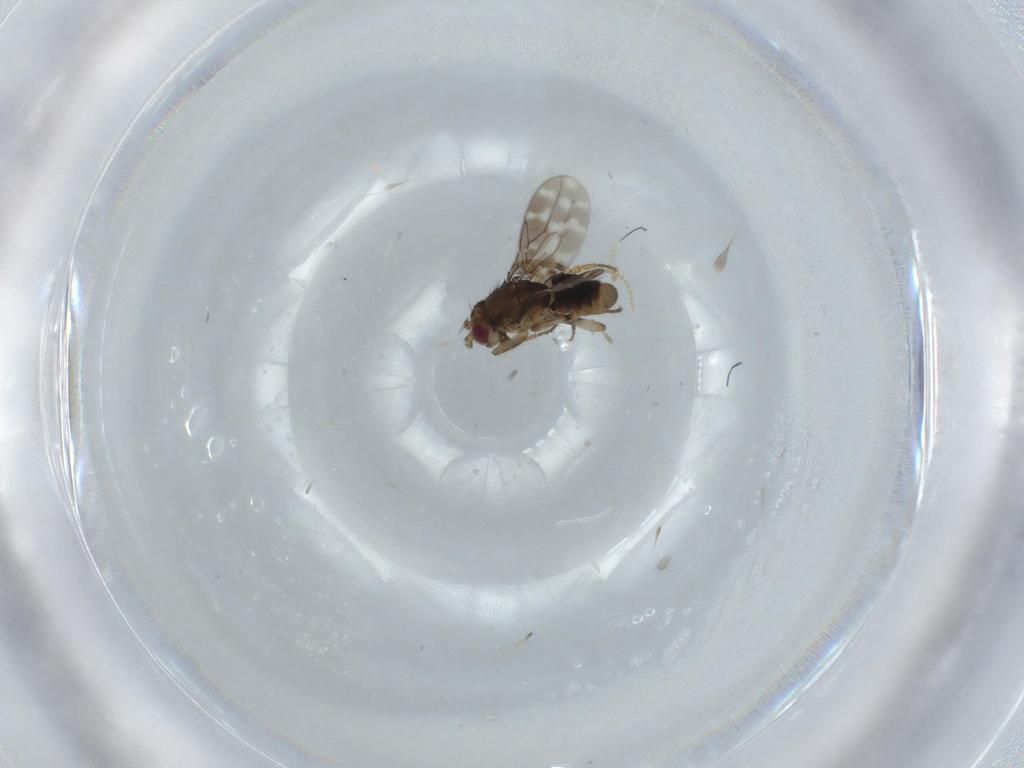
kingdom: Animalia
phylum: Arthropoda
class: Insecta
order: Diptera
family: Sphaeroceridae
